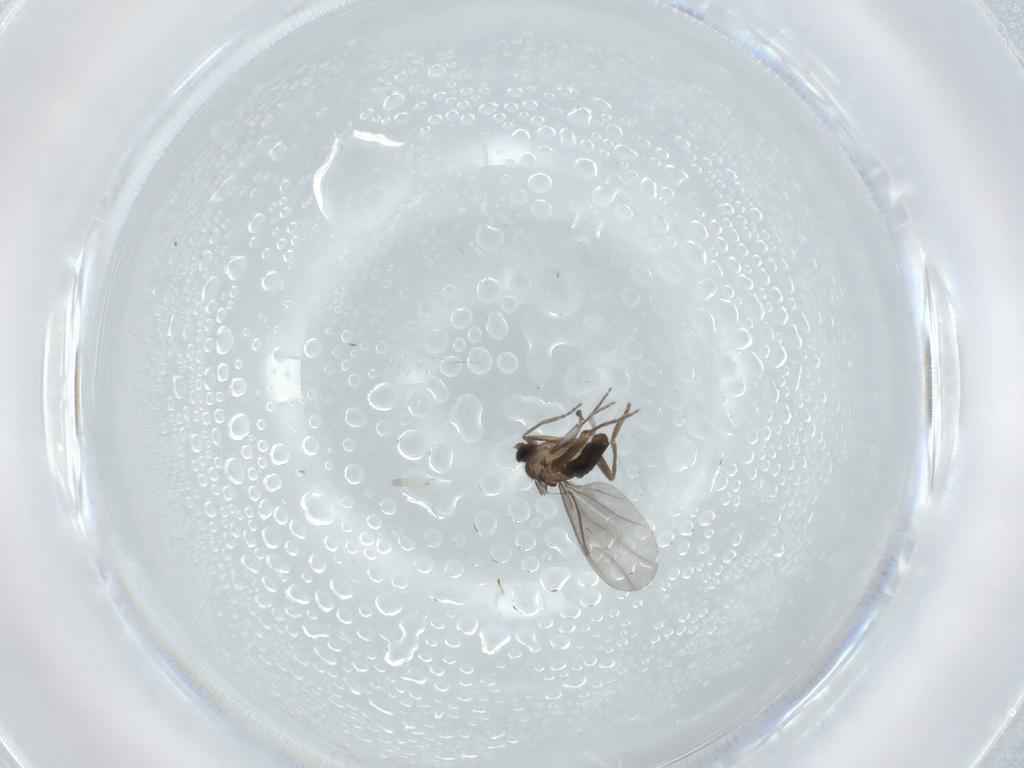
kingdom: Animalia
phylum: Arthropoda
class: Insecta
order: Diptera
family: Phoridae
